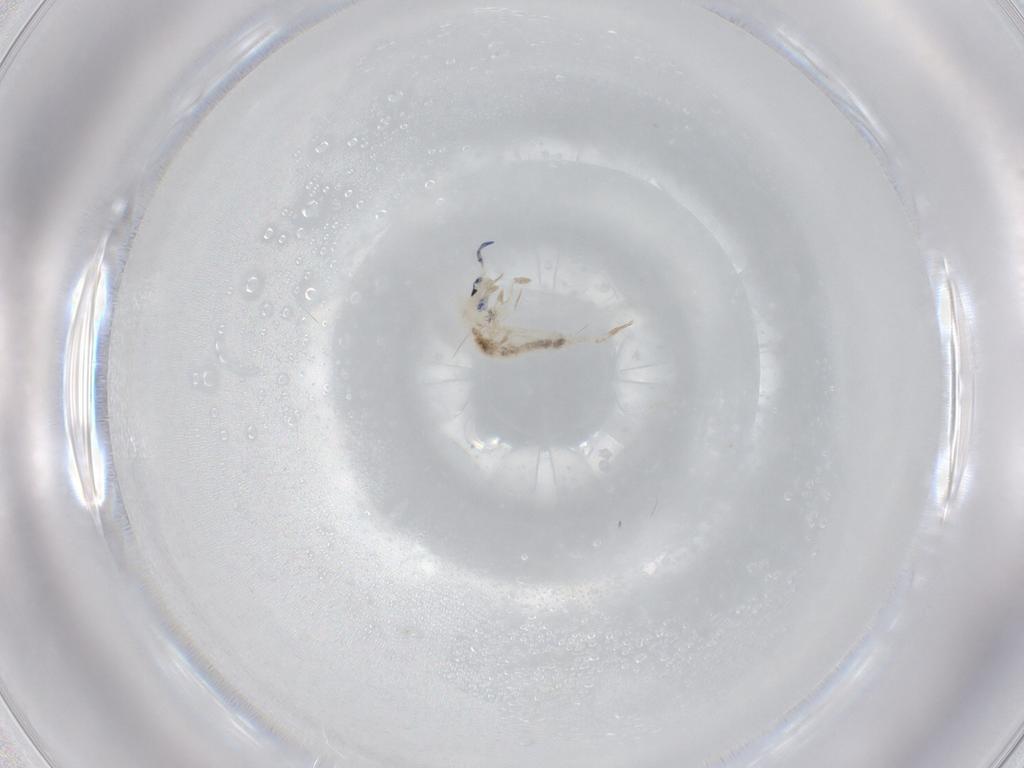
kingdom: Animalia
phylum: Arthropoda
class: Collembola
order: Entomobryomorpha
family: Entomobryidae
